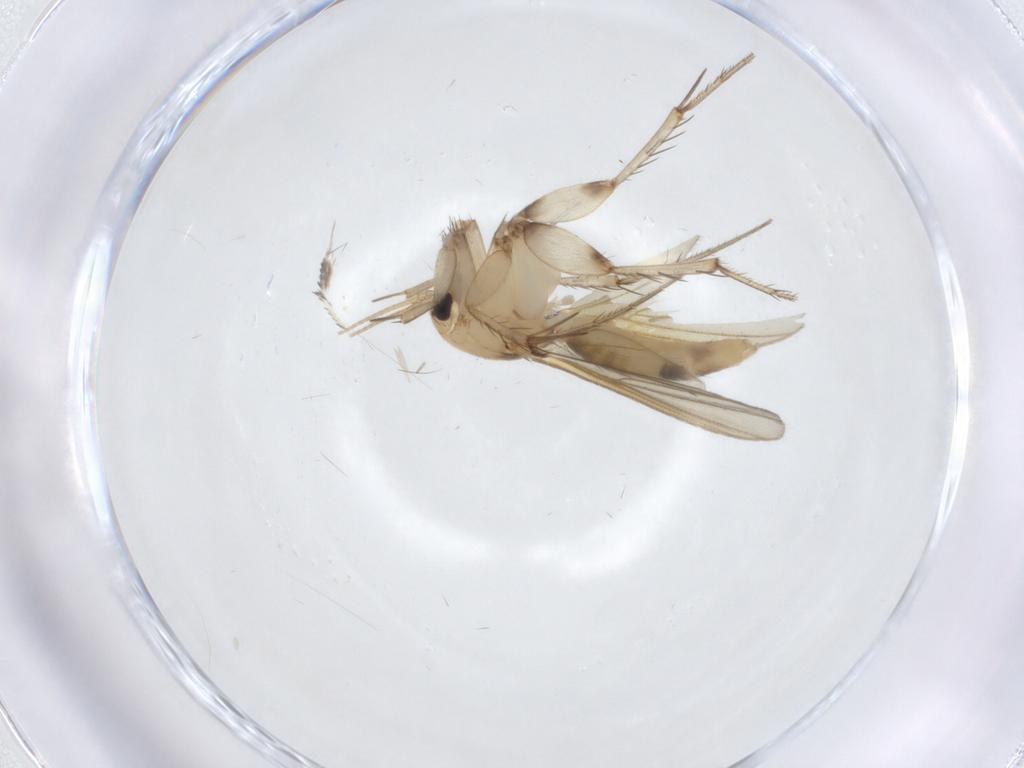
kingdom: Animalia
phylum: Arthropoda
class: Insecta
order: Diptera
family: Mycetophilidae
